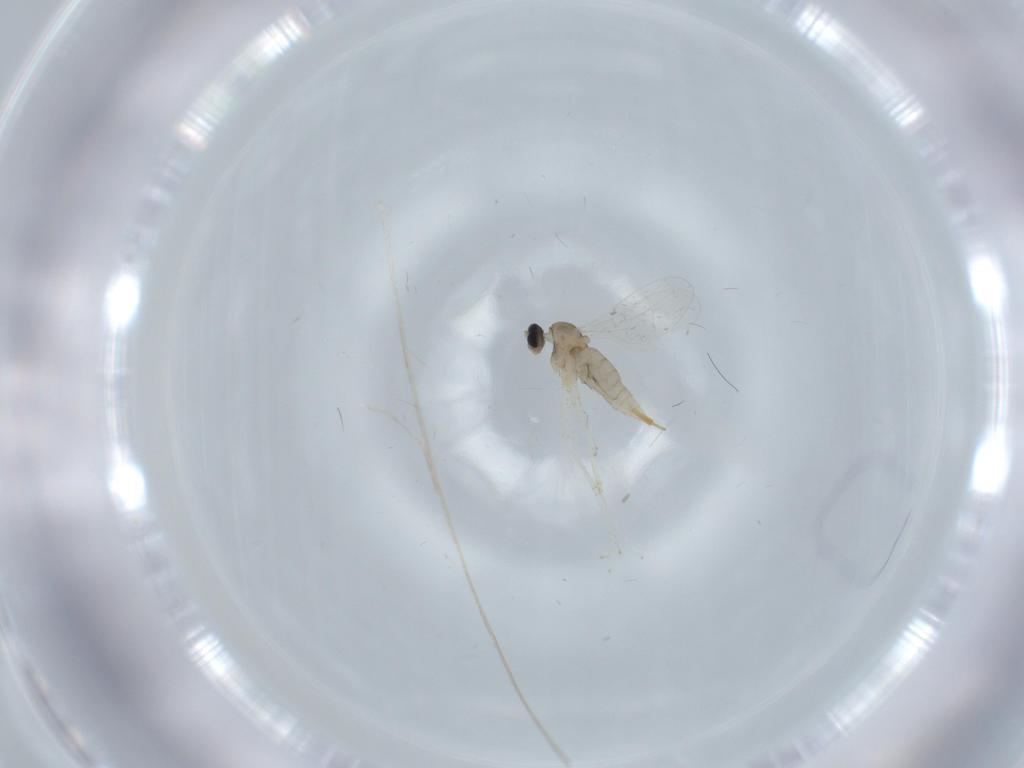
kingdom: Animalia
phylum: Arthropoda
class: Insecta
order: Diptera
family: Cecidomyiidae
